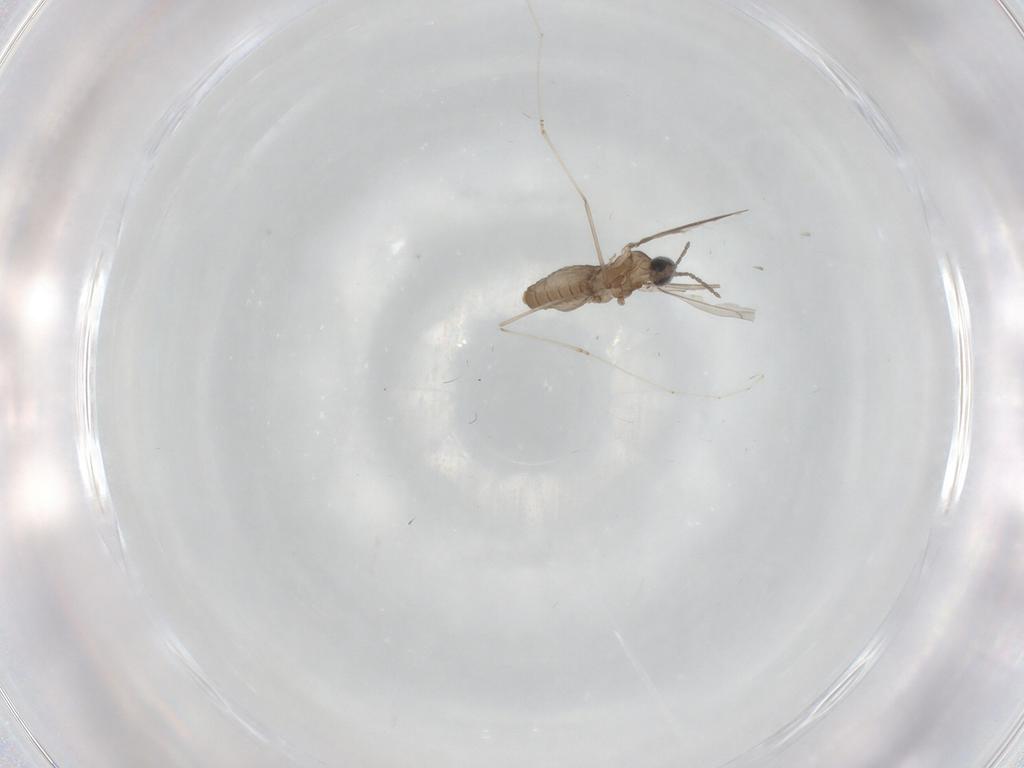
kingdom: Animalia
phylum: Arthropoda
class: Insecta
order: Diptera
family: Cecidomyiidae
